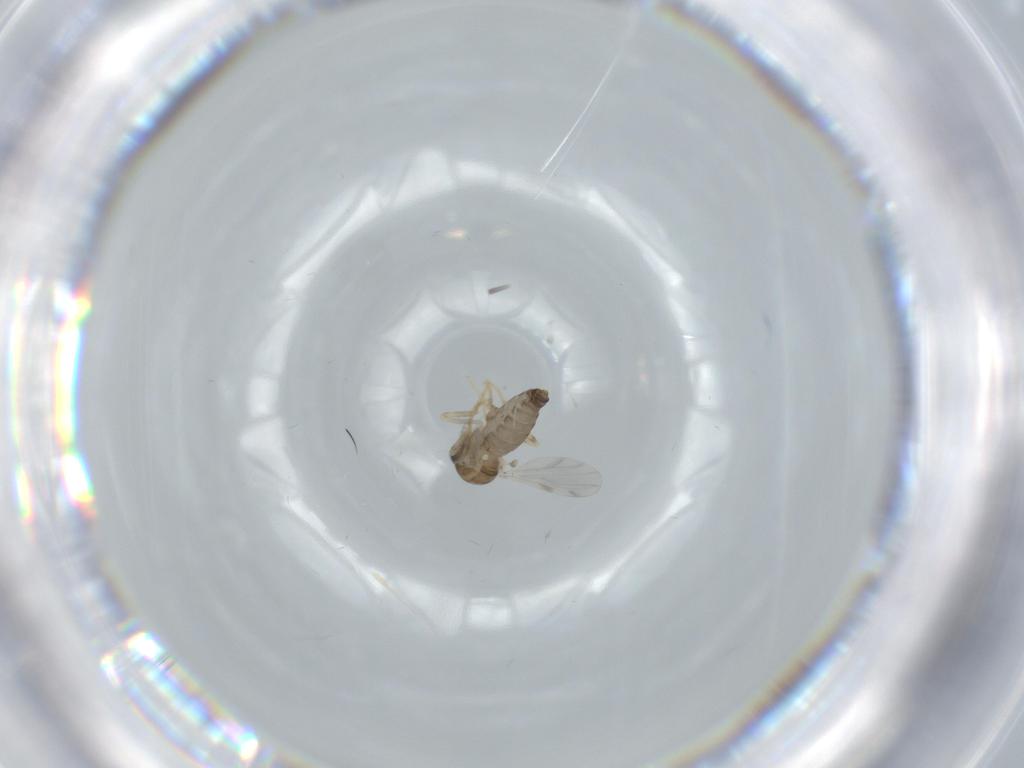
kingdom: Animalia
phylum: Arthropoda
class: Insecta
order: Diptera
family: Ceratopogonidae
